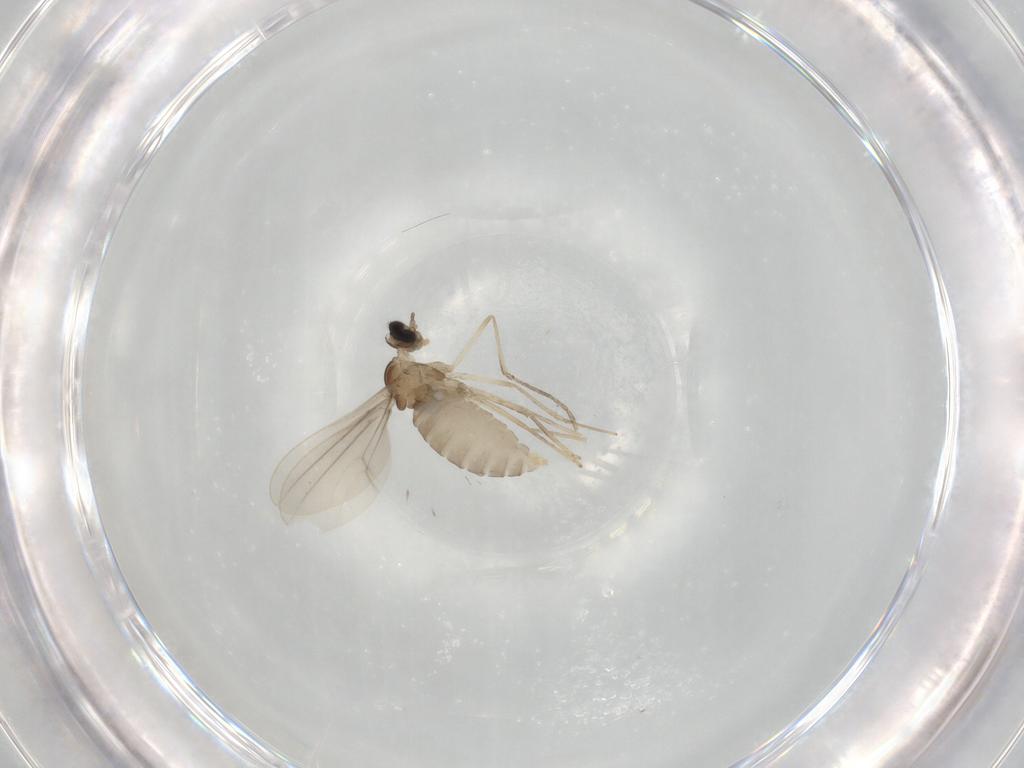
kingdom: Animalia
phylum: Arthropoda
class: Insecta
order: Diptera
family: Cecidomyiidae
